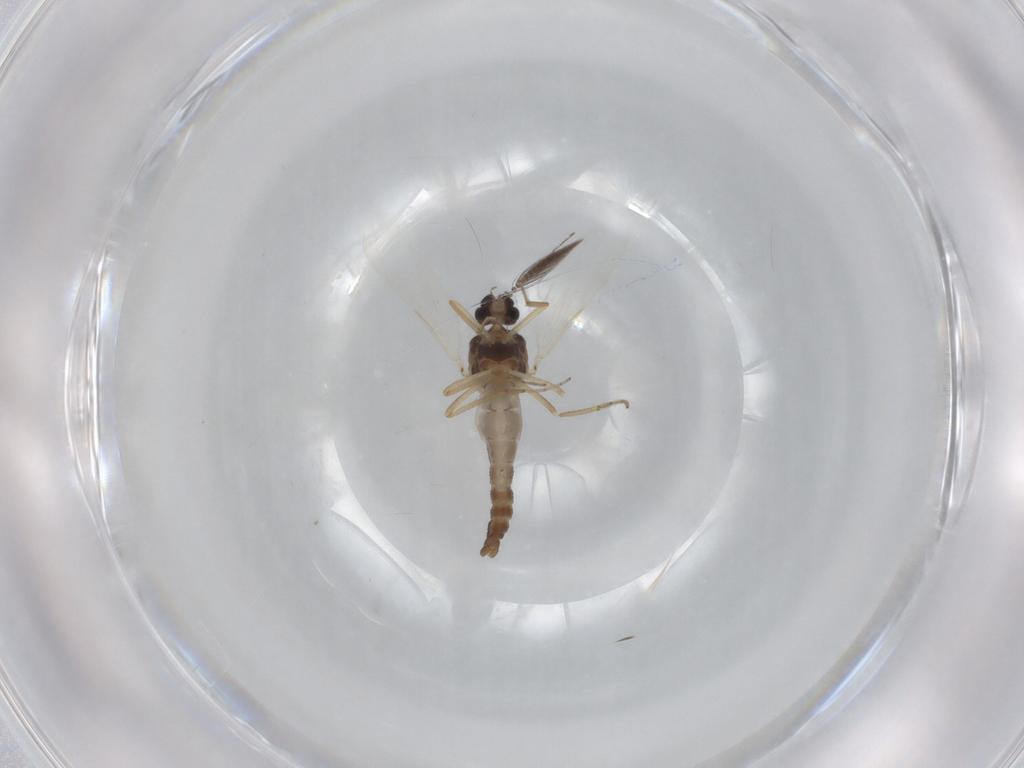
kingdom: Animalia
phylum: Arthropoda
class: Insecta
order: Diptera
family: Ceratopogonidae
